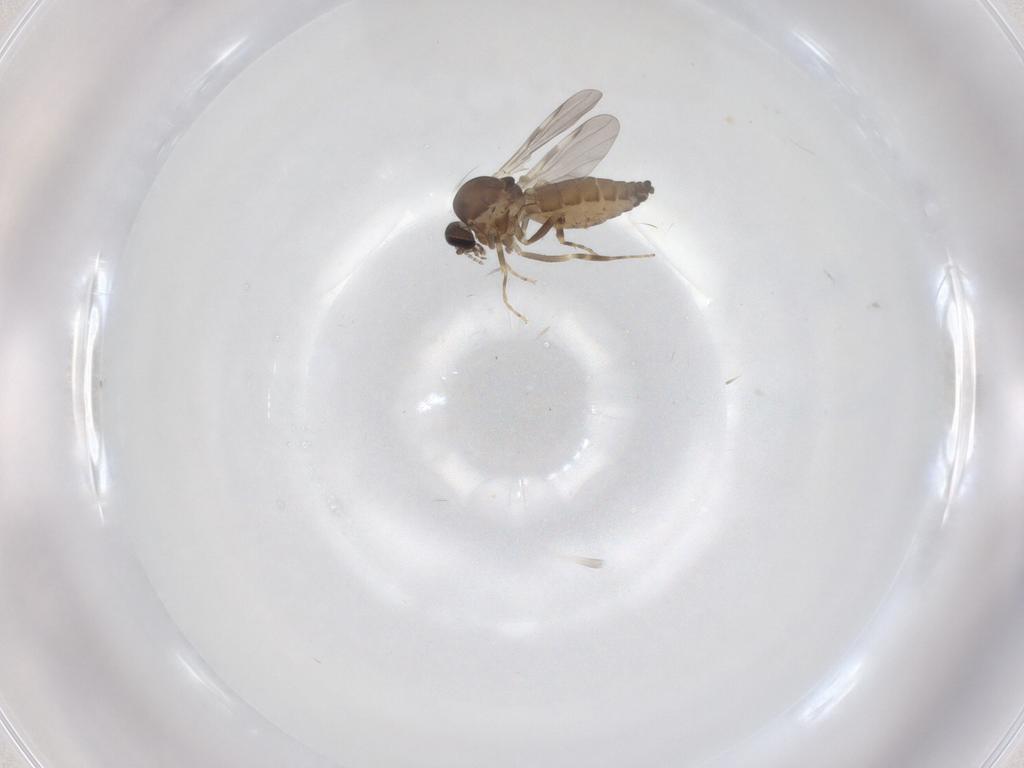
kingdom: Animalia
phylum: Arthropoda
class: Insecta
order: Diptera
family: Ceratopogonidae
